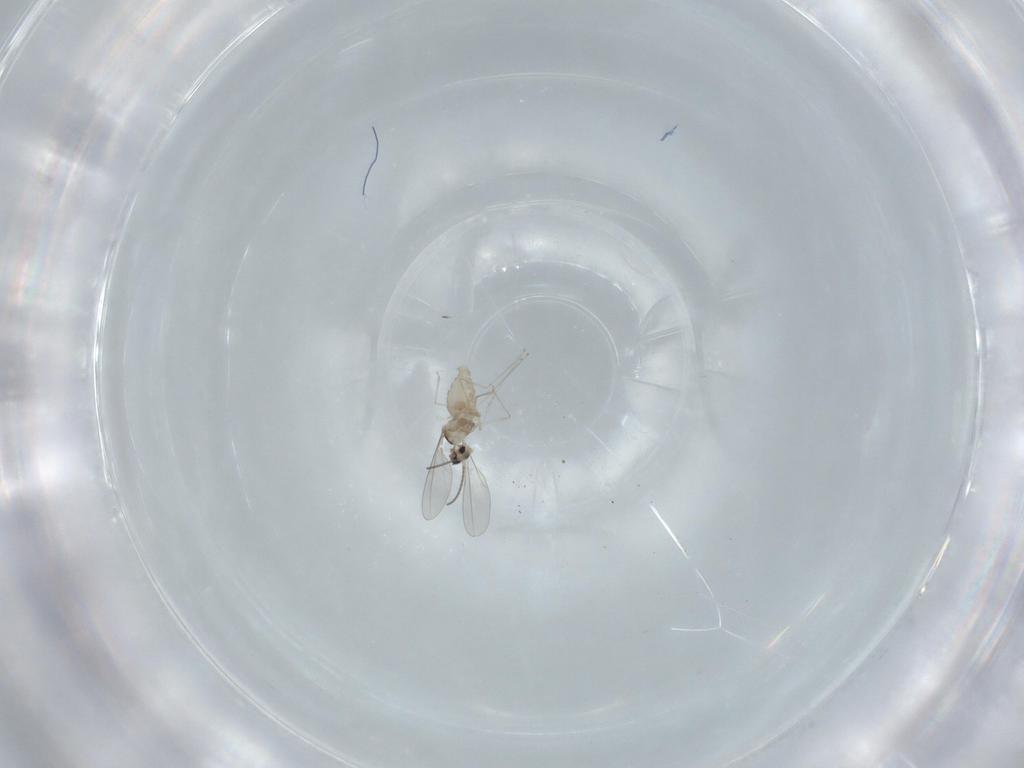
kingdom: Animalia
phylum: Arthropoda
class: Insecta
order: Diptera
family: Cecidomyiidae
